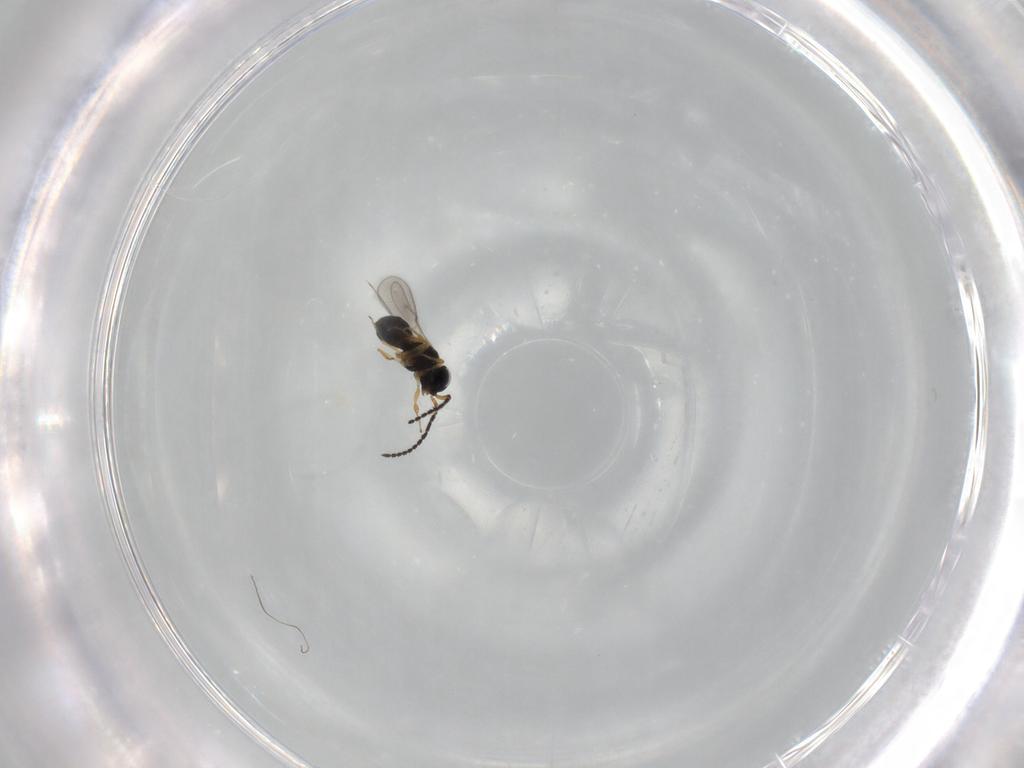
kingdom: Animalia
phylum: Arthropoda
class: Insecta
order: Hymenoptera
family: Scelionidae
